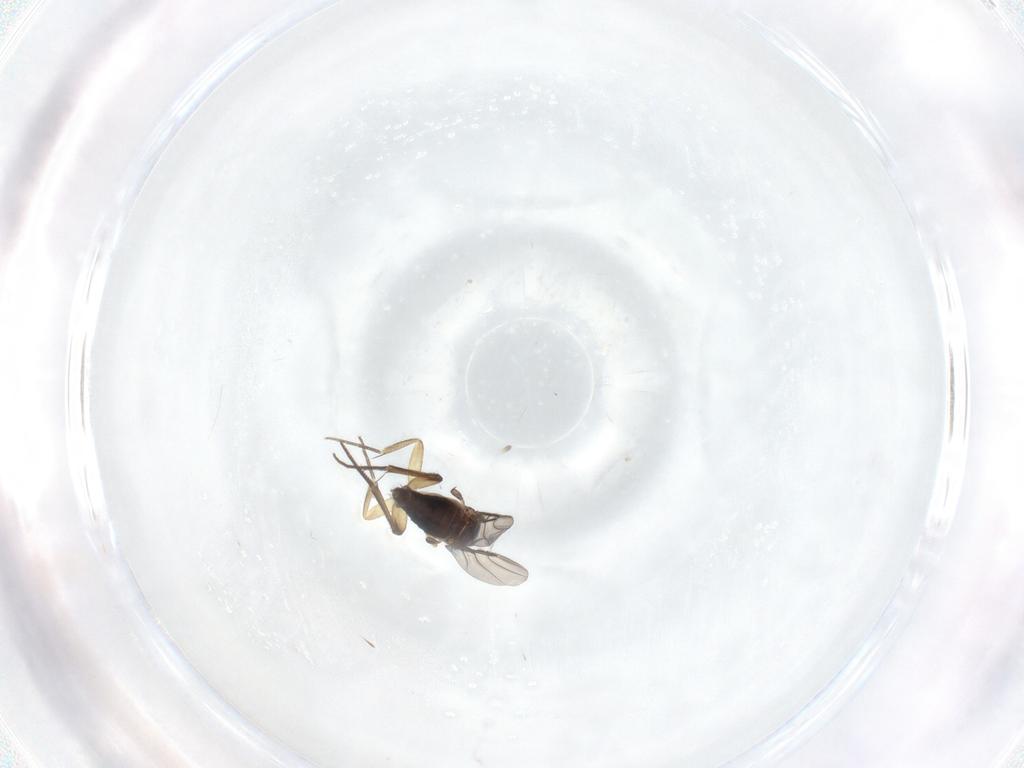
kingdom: Animalia
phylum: Arthropoda
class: Insecta
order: Diptera
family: Phoridae
